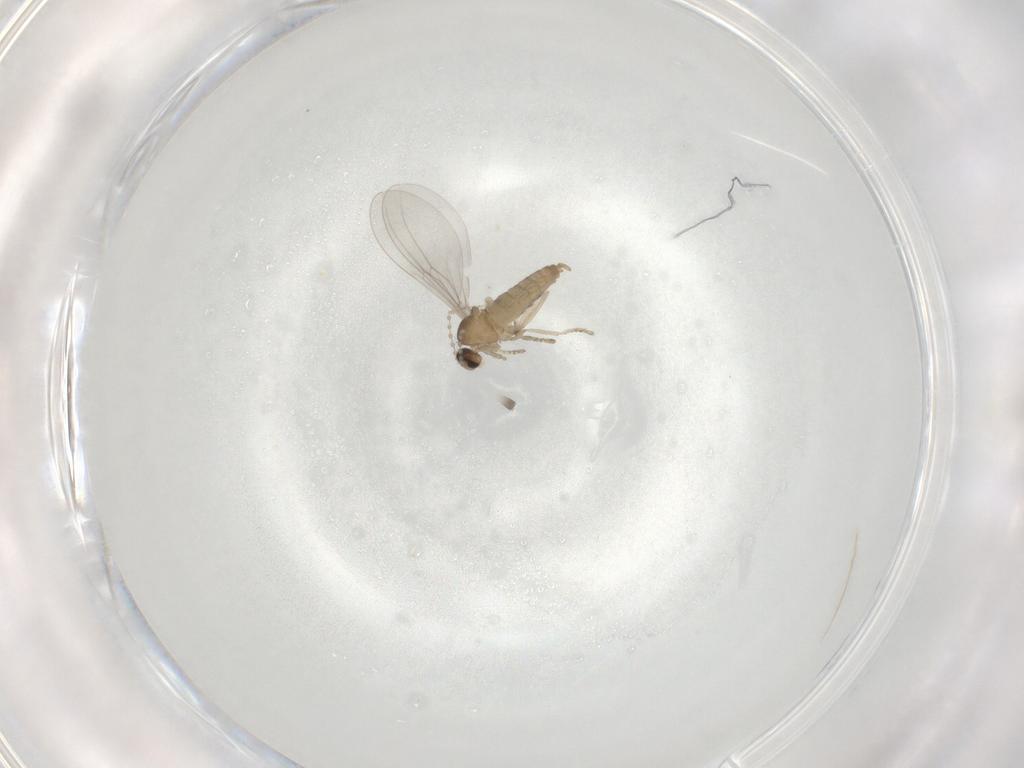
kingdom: Animalia
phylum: Arthropoda
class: Insecta
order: Diptera
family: Cecidomyiidae
